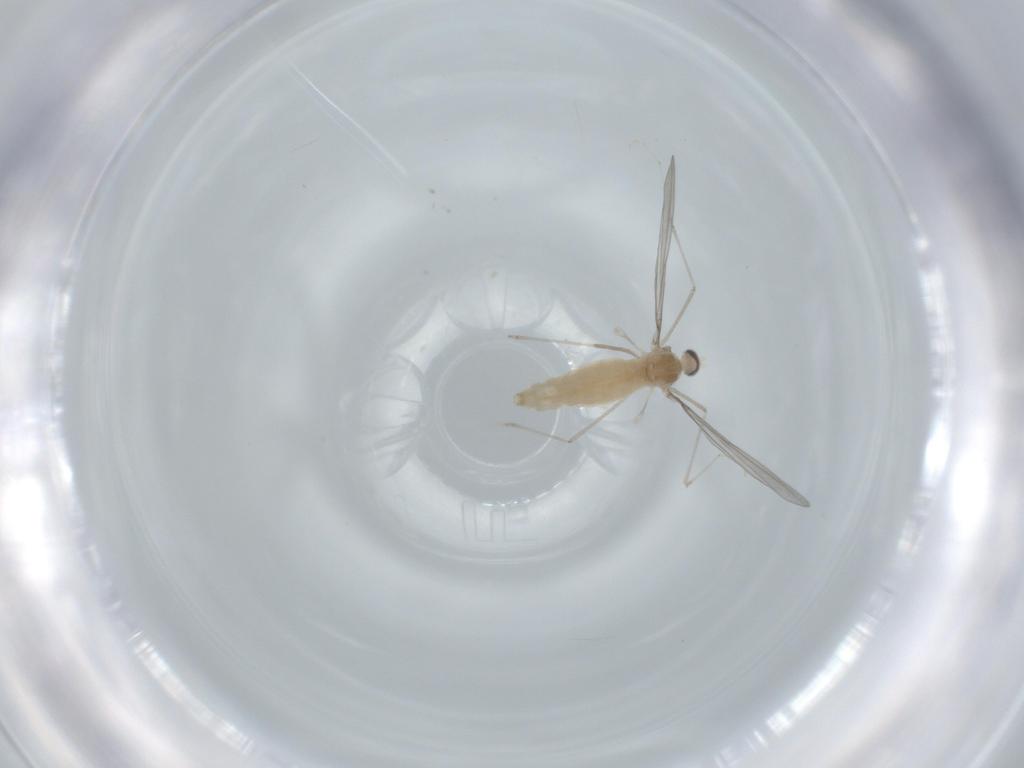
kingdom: Animalia
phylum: Arthropoda
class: Insecta
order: Diptera
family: Cecidomyiidae
